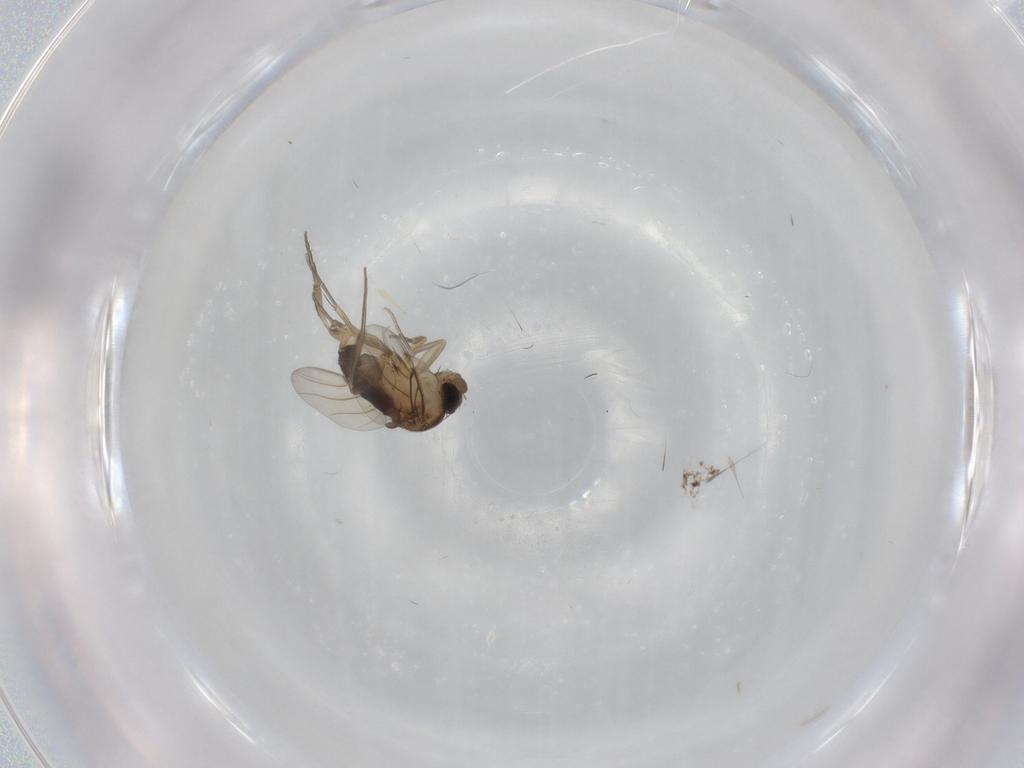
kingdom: Animalia
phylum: Arthropoda
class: Insecta
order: Diptera
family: Phoridae
